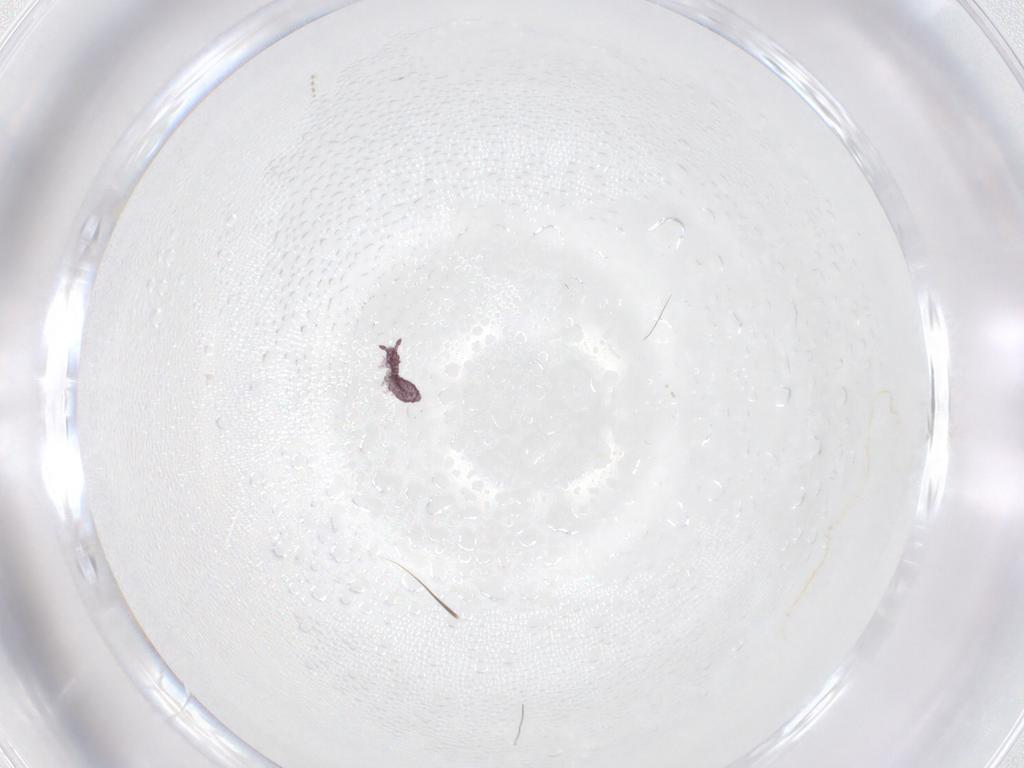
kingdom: Animalia
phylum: Arthropoda
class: Collembola
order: Poduromorpha
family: Hypogastruridae
